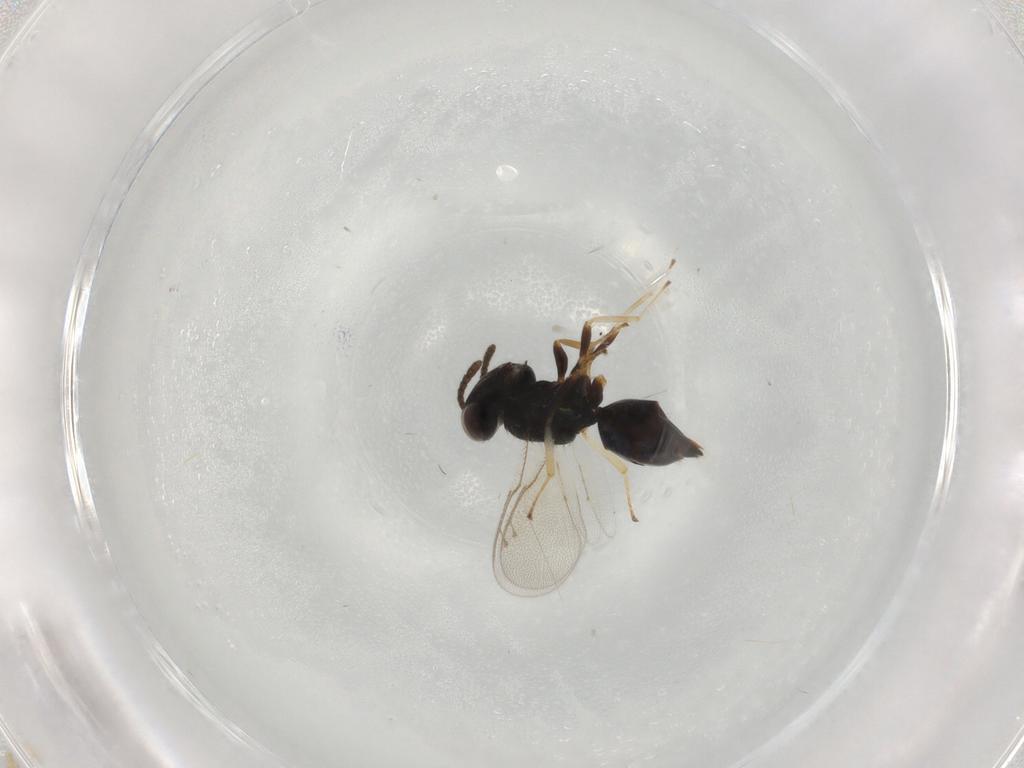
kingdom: Animalia
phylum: Arthropoda
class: Insecta
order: Hymenoptera
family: Pteromalidae
